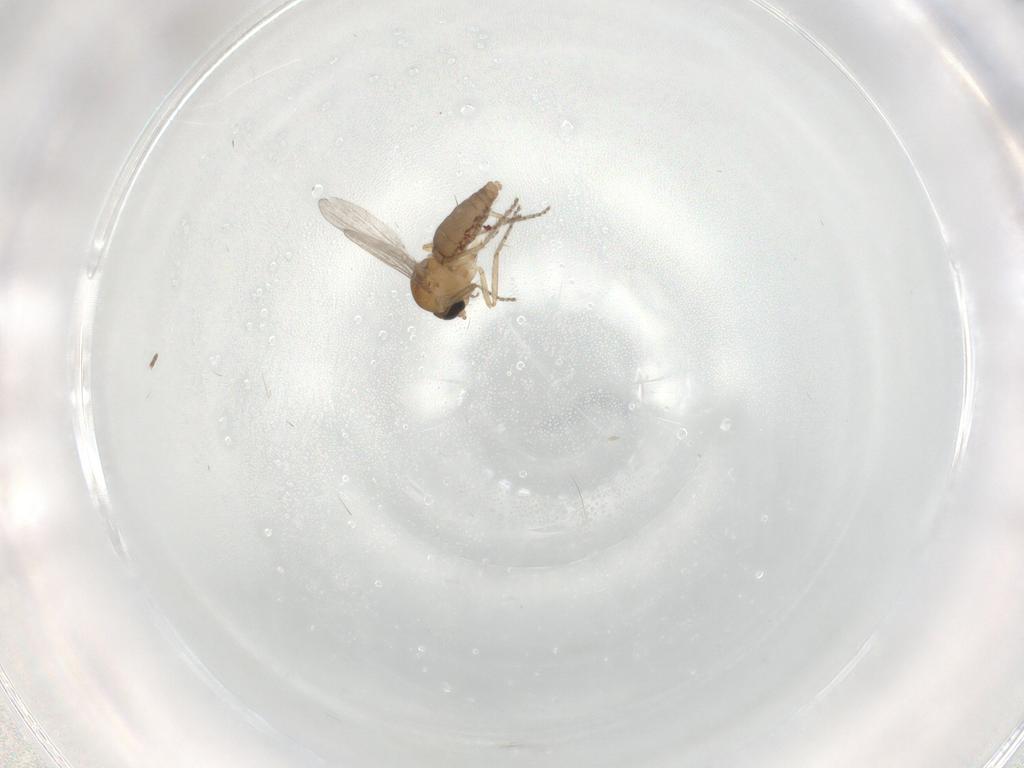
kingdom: Animalia
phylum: Arthropoda
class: Insecta
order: Diptera
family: Ceratopogonidae
